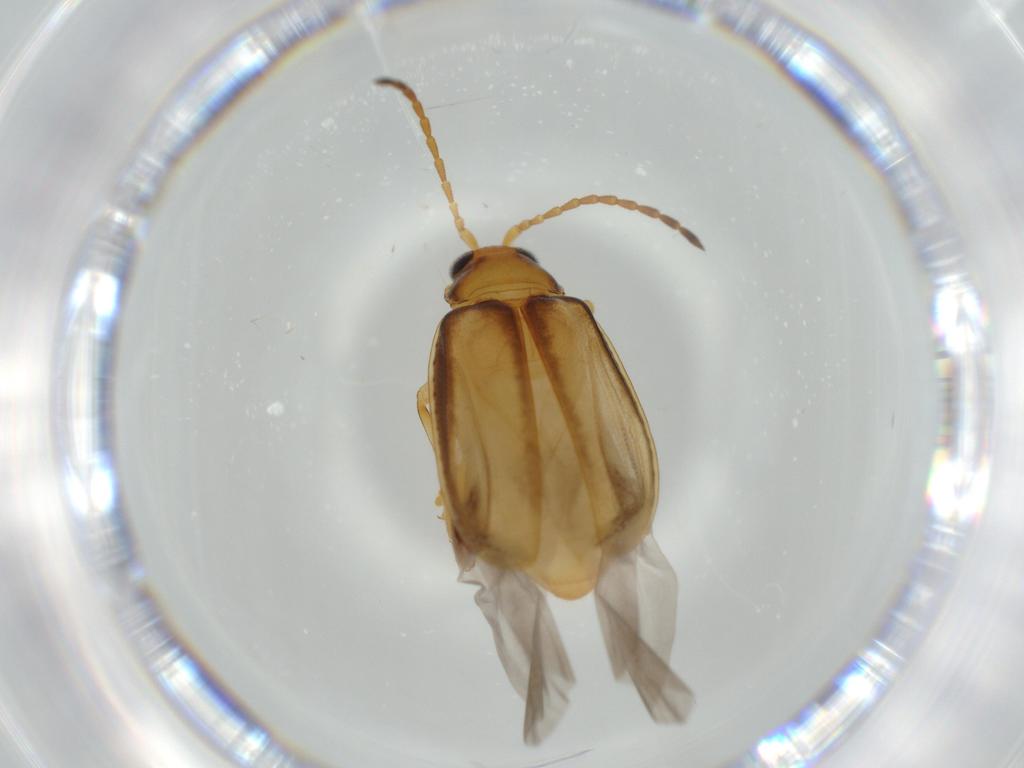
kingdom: Animalia
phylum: Arthropoda
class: Insecta
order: Coleoptera
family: Chrysomelidae
